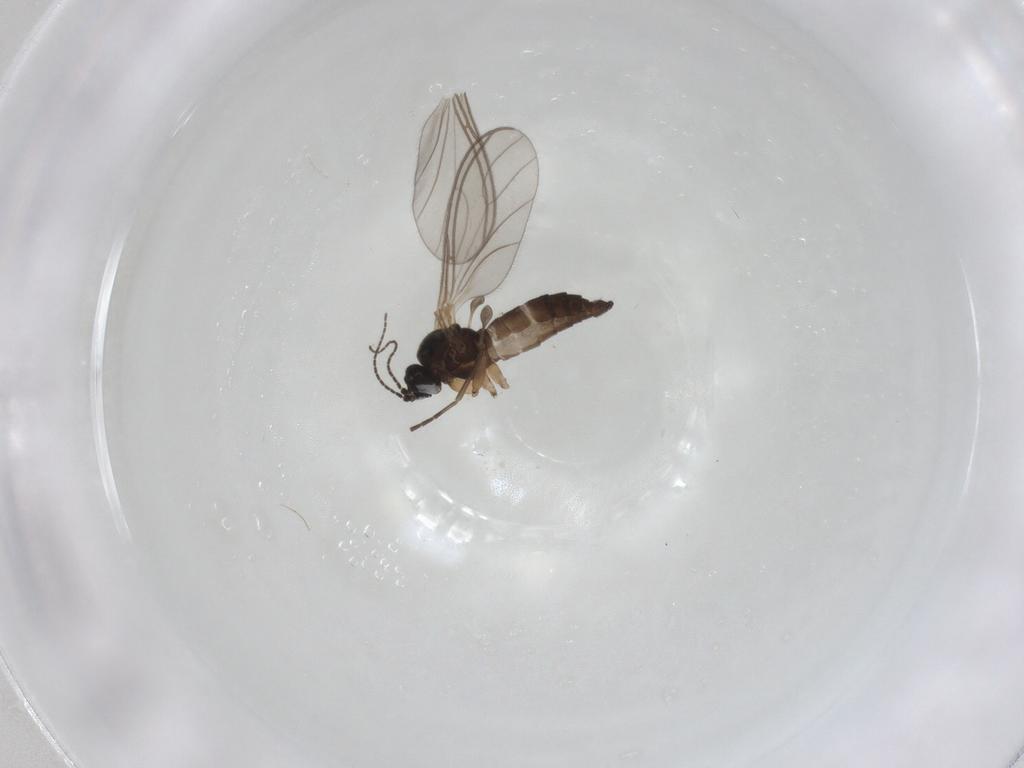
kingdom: Animalia
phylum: Arthropoda
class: Insecta
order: Diptera
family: Sciaridae
